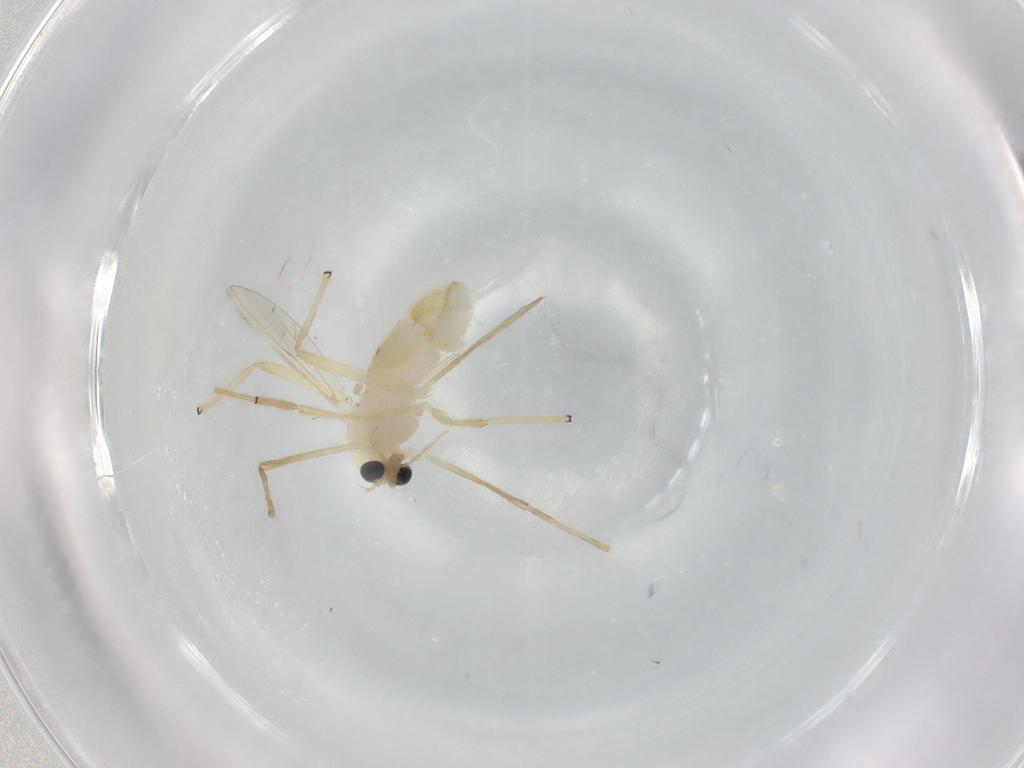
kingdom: Animalia
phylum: Arthropoda
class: Insecta
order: Diptera
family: Chironomidae
